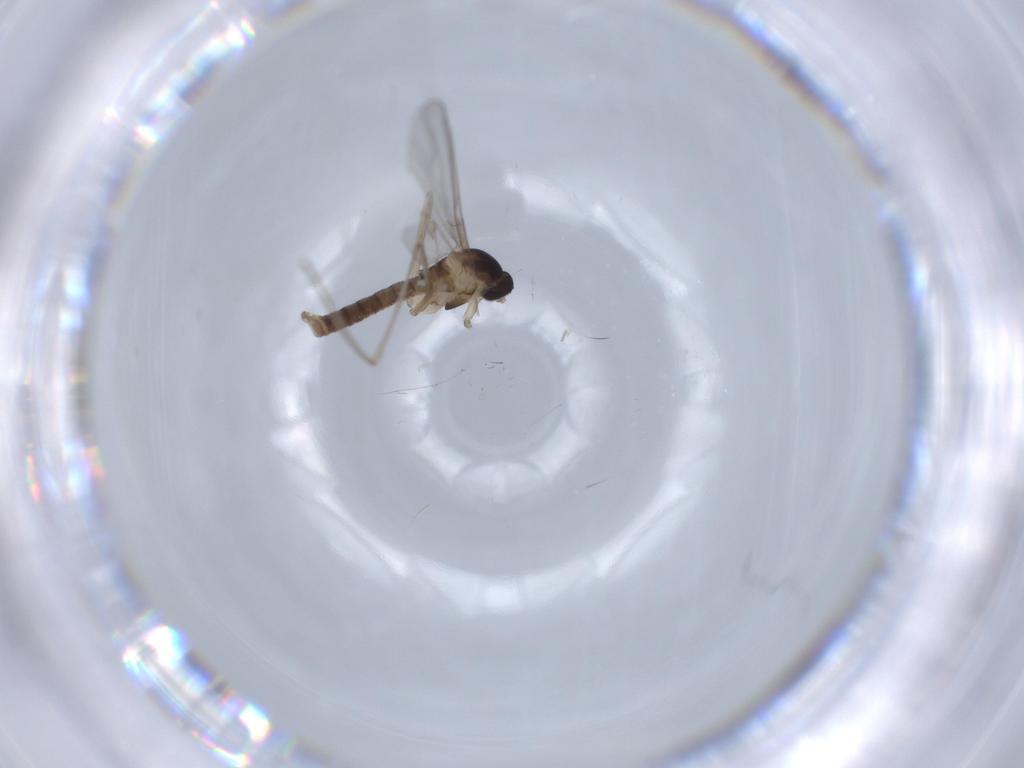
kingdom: Animalia
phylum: Arthropoda
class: Insecta
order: Diptera
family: Cecidomyiidae
